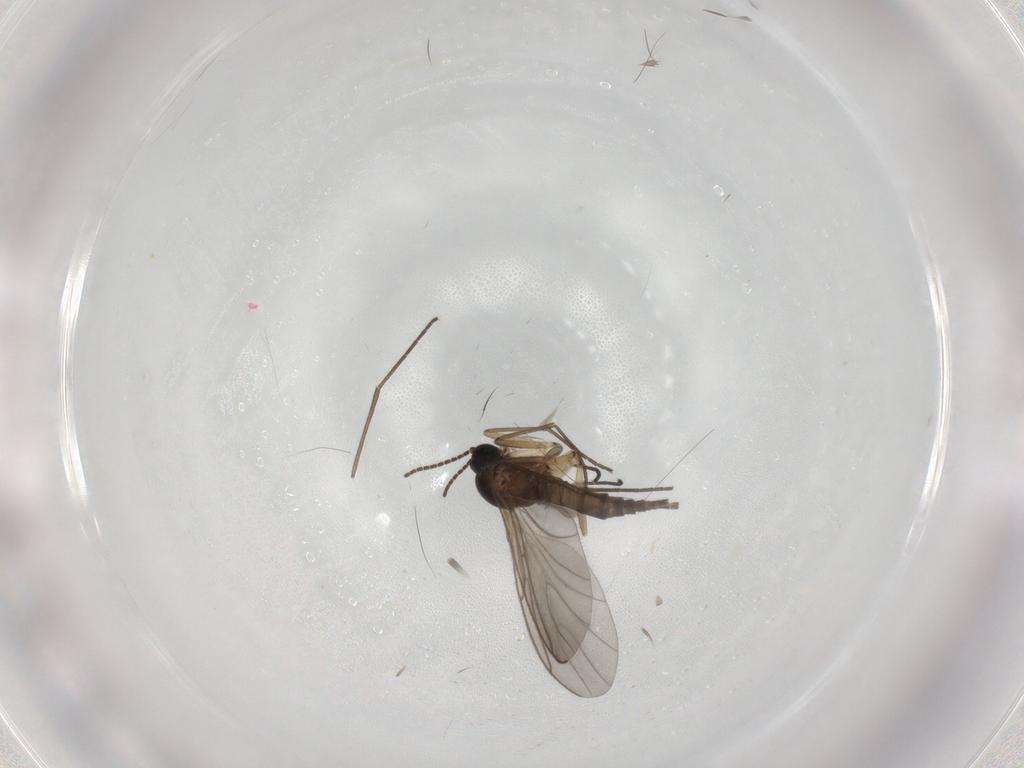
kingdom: Animalia
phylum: Arthropoda
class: Insecta
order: Diptera
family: Sciaridae
